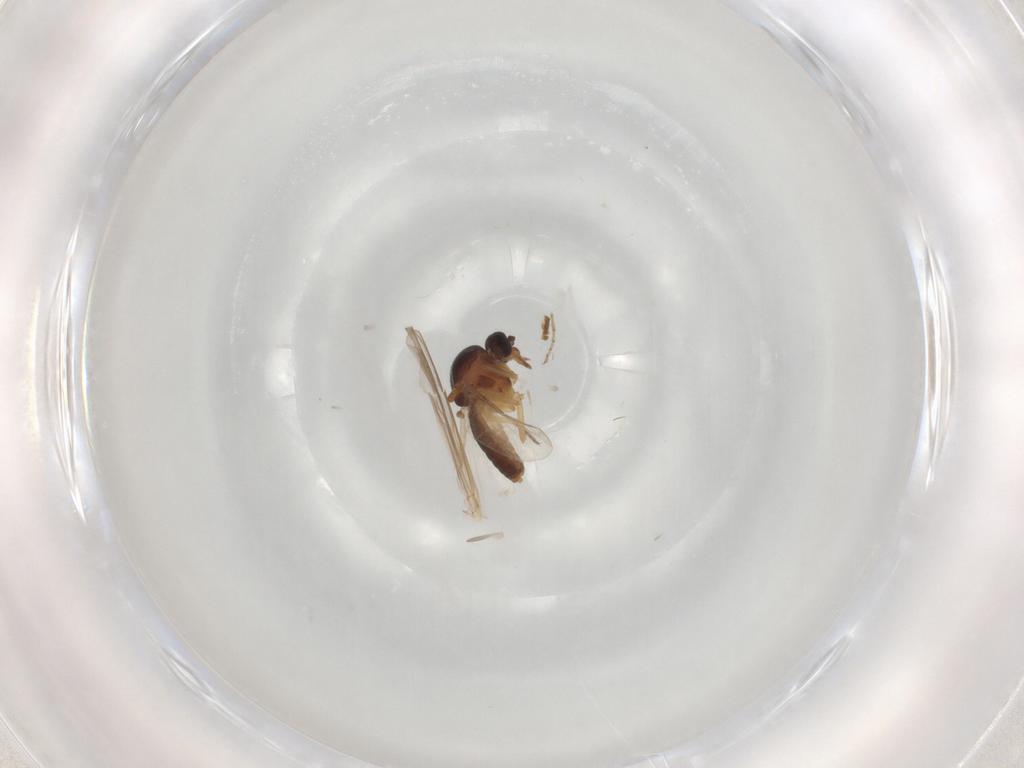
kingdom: Animalia
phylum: Arthropoda
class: Insecta
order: Diptera
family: Ceratopogonidae
